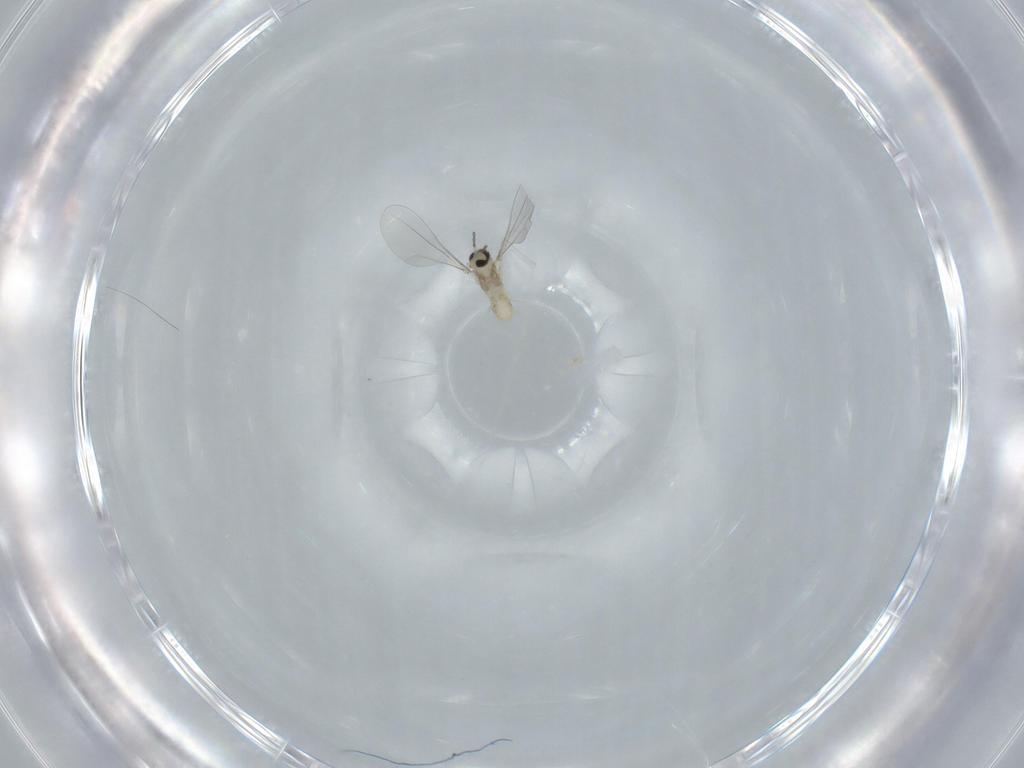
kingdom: Animalia
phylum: Arthropoda
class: Insecta
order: Diptera
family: Cecidomyiidae
